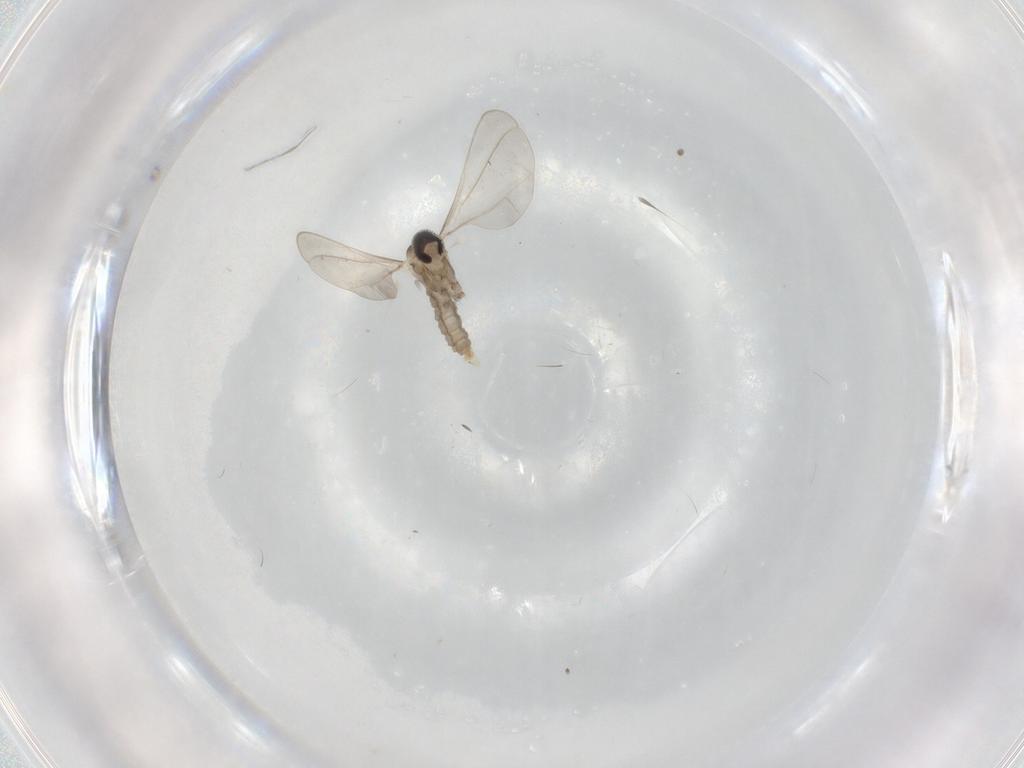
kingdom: Animalia
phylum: Arthropoda
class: Insecta
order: Diptera
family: Cecidomyiidae
